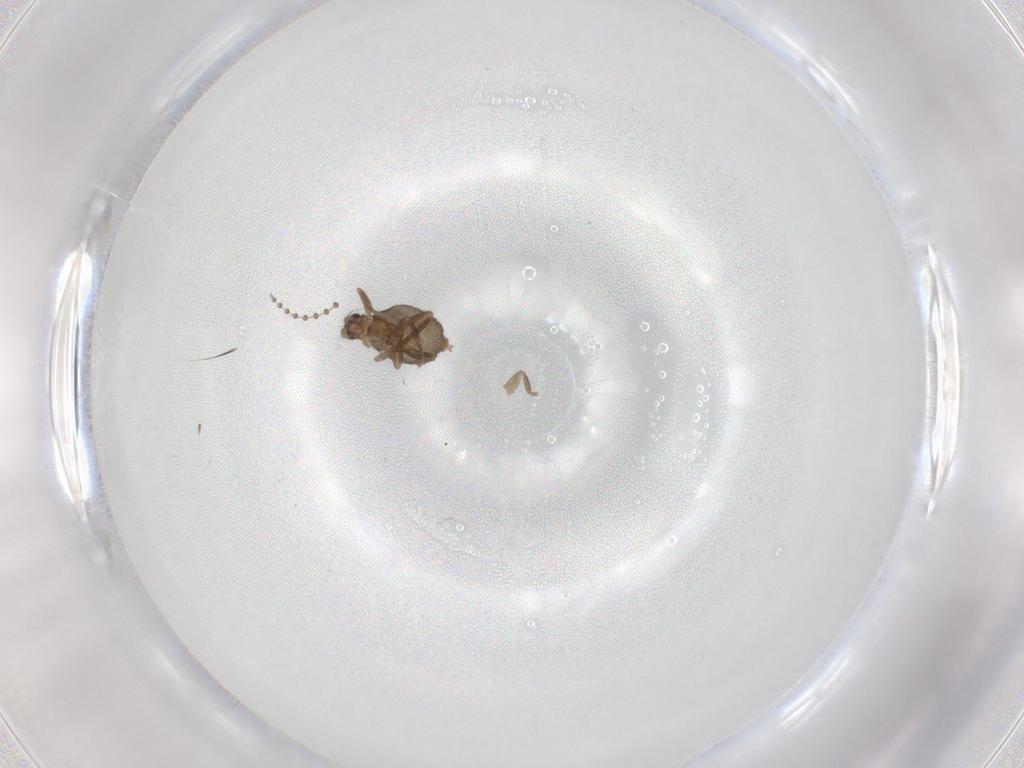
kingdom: Animalia
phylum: Arthropoda
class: Insecta
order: Diptera
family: Psychodidae
